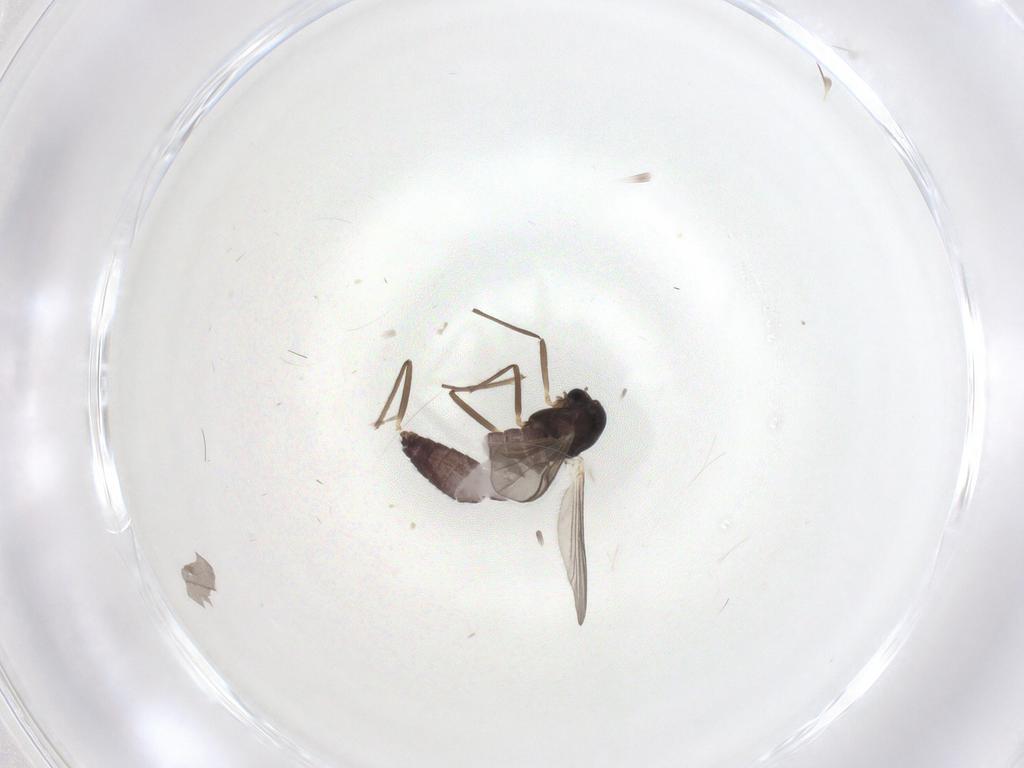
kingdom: Animalia
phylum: Arthropoda
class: Insecta
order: Diptera
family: Chironomidae
